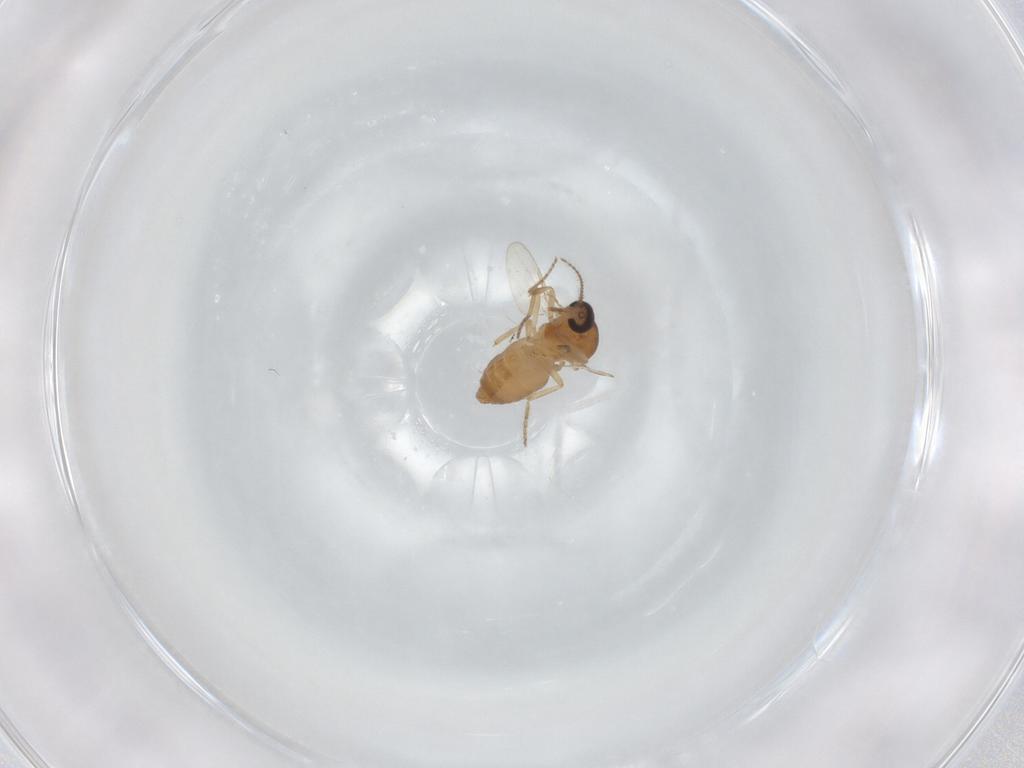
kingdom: Animalia
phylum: Arthropoda
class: Insecta
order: Diptera
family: Ceratopogonidae
